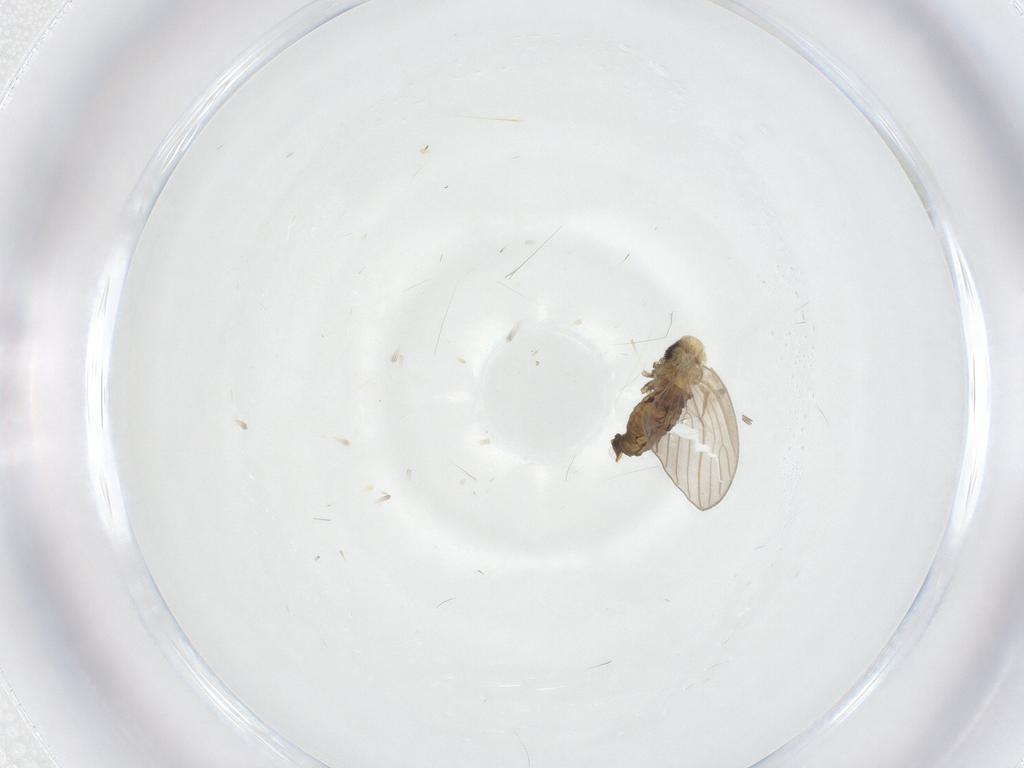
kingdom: Animalia
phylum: Arthropoda
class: Insecta
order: Diptera
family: Psychodidae
